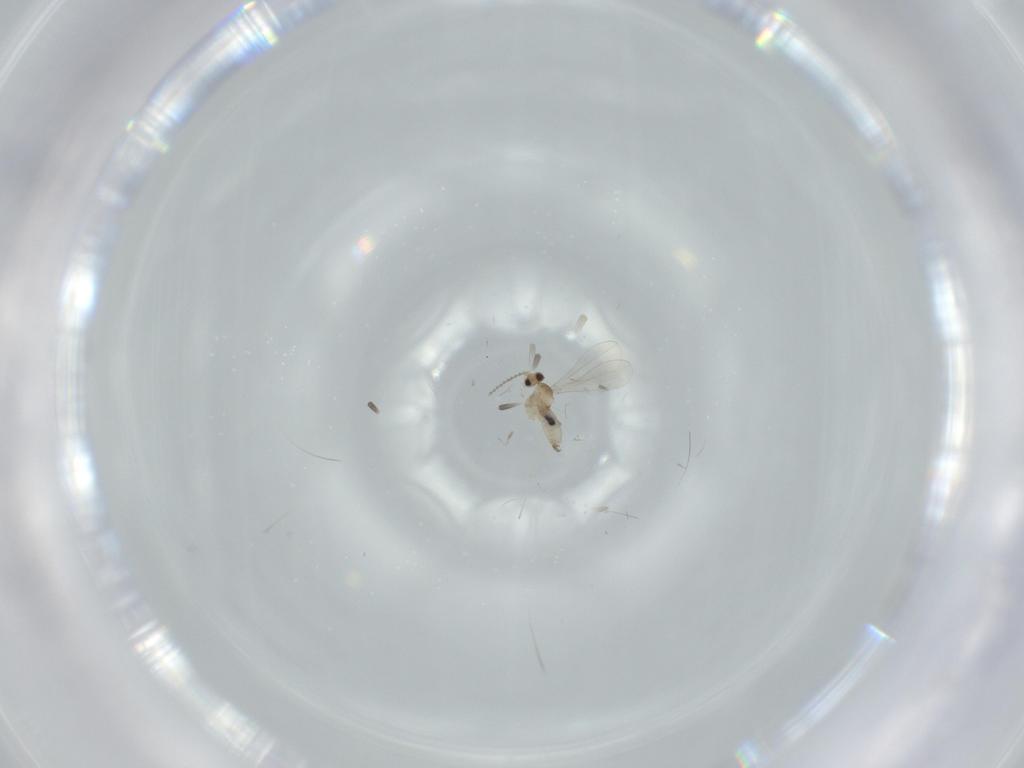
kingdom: Animalia
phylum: Arthropoda
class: Insecta
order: Diptera
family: Cecidomyiidae
